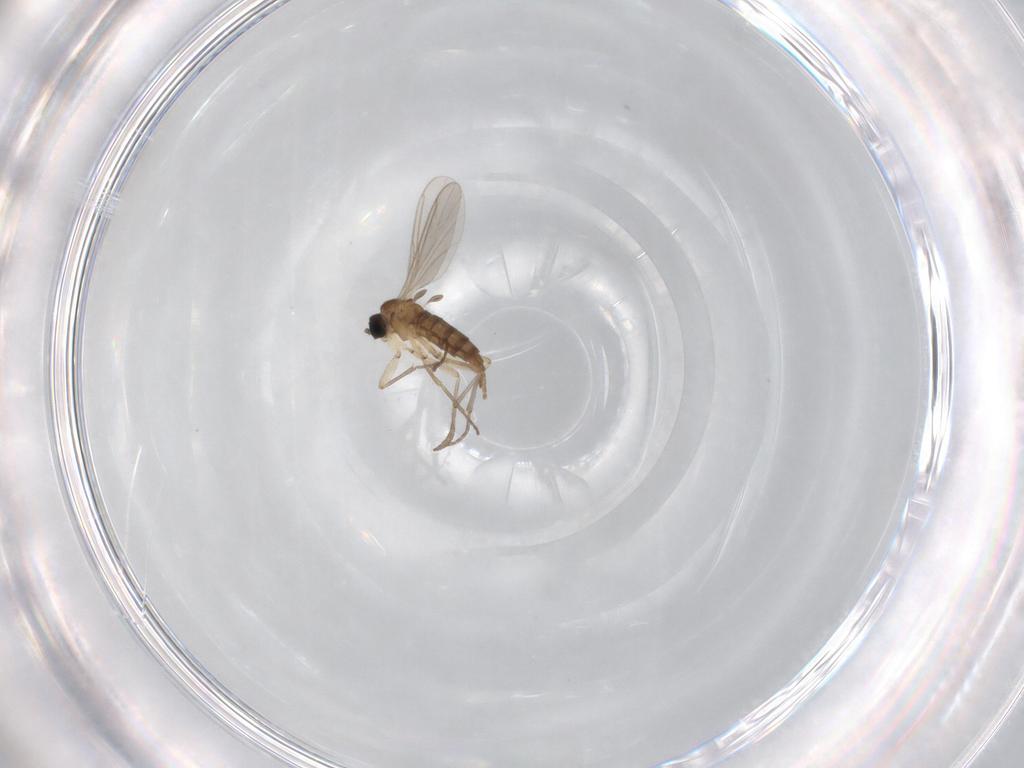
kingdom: Animalia
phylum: Arthropoda
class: Insecta
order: Diptera
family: Sciaridae
